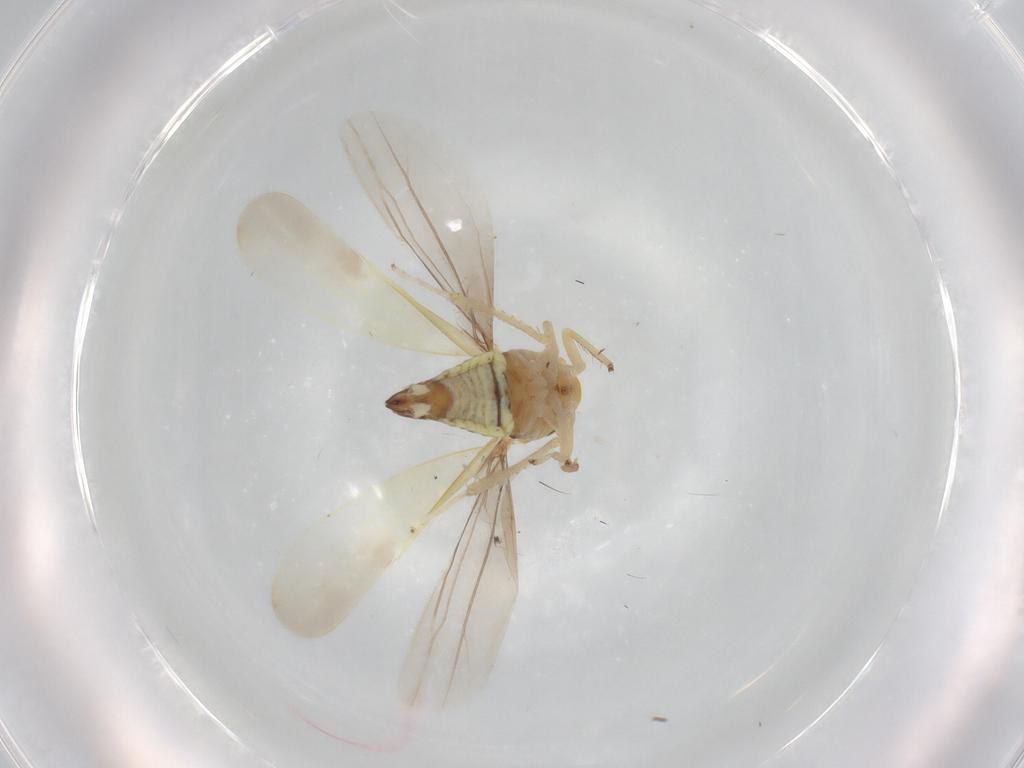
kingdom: Animalia
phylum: Arthropoda
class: Insecta
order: Hemiptera
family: Cicadellidae
